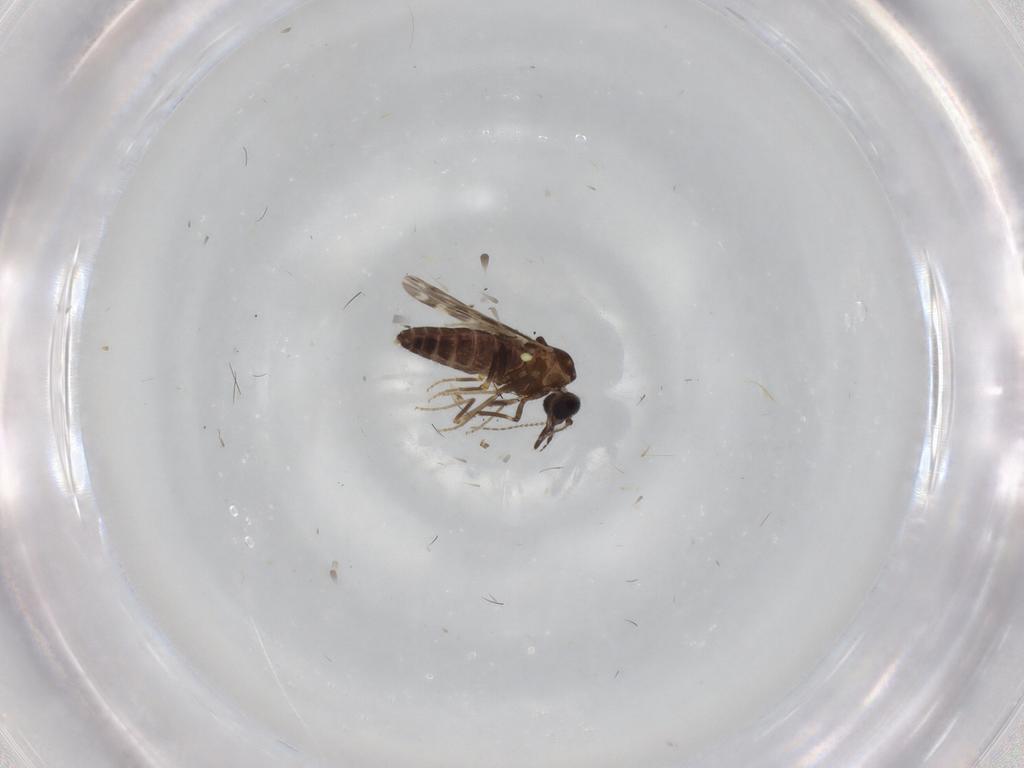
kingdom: Animalia
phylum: Arthropoda
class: Insecta
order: Diptera
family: Ceratopogonidae
